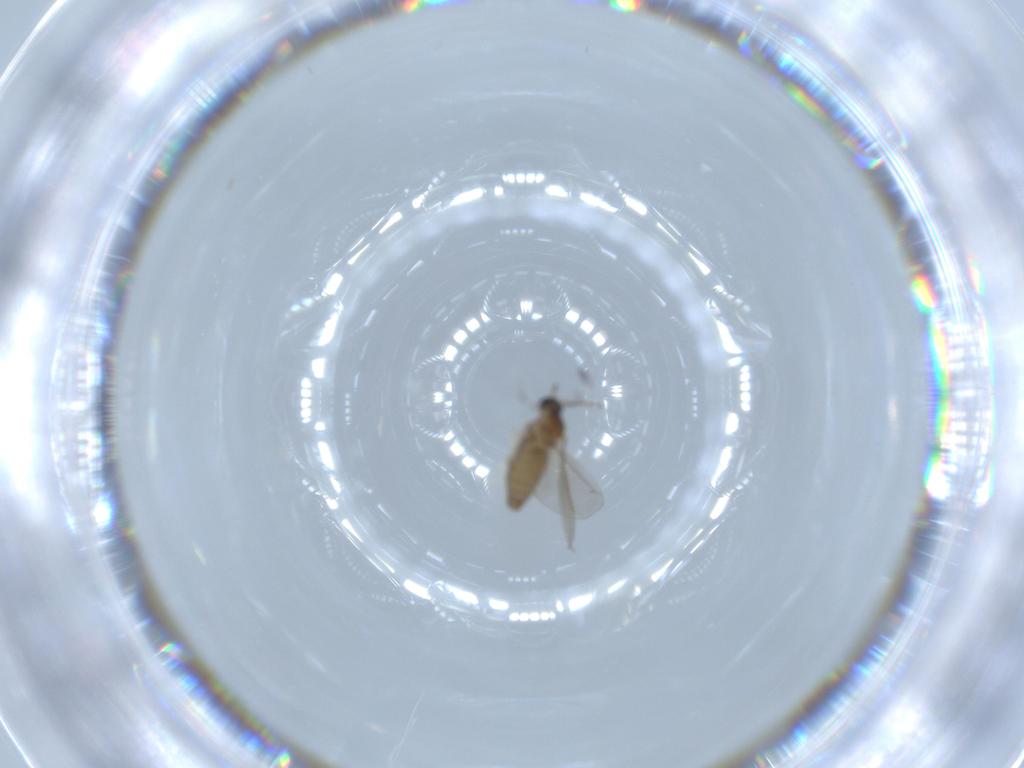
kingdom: Animalia
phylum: Arthropoda
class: Insecta
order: Diptera
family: Cecidomyiidae
